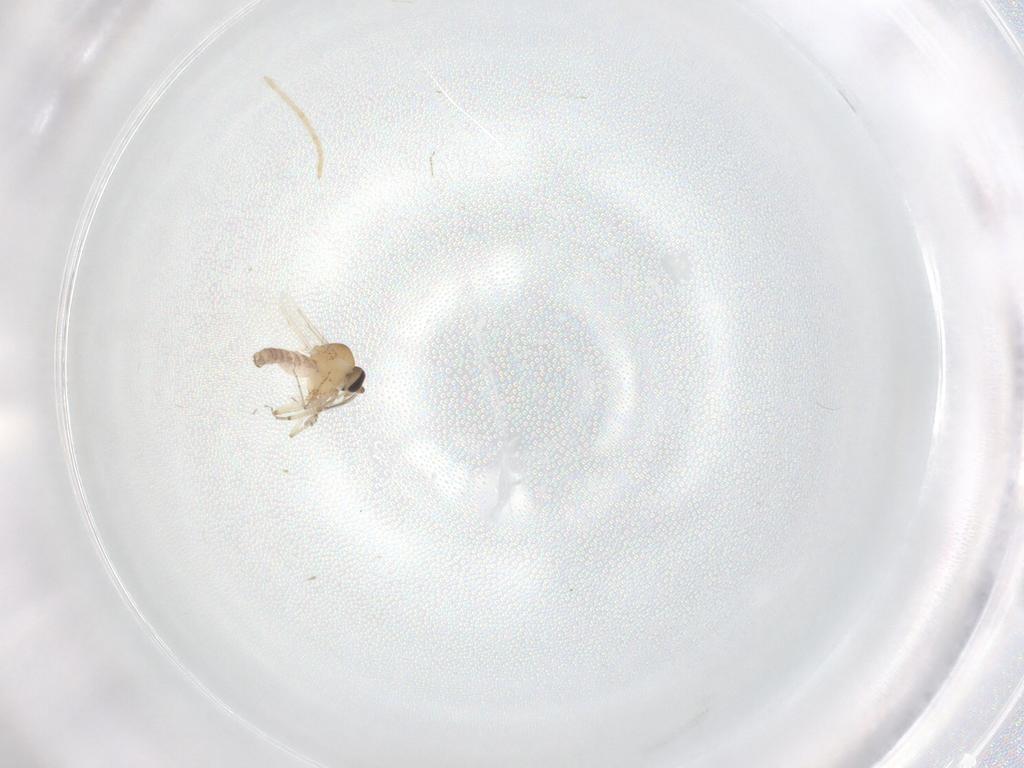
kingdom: Animalia
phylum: Arthropoda
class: Insecta
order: Diptera
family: Ceratopogonidae
